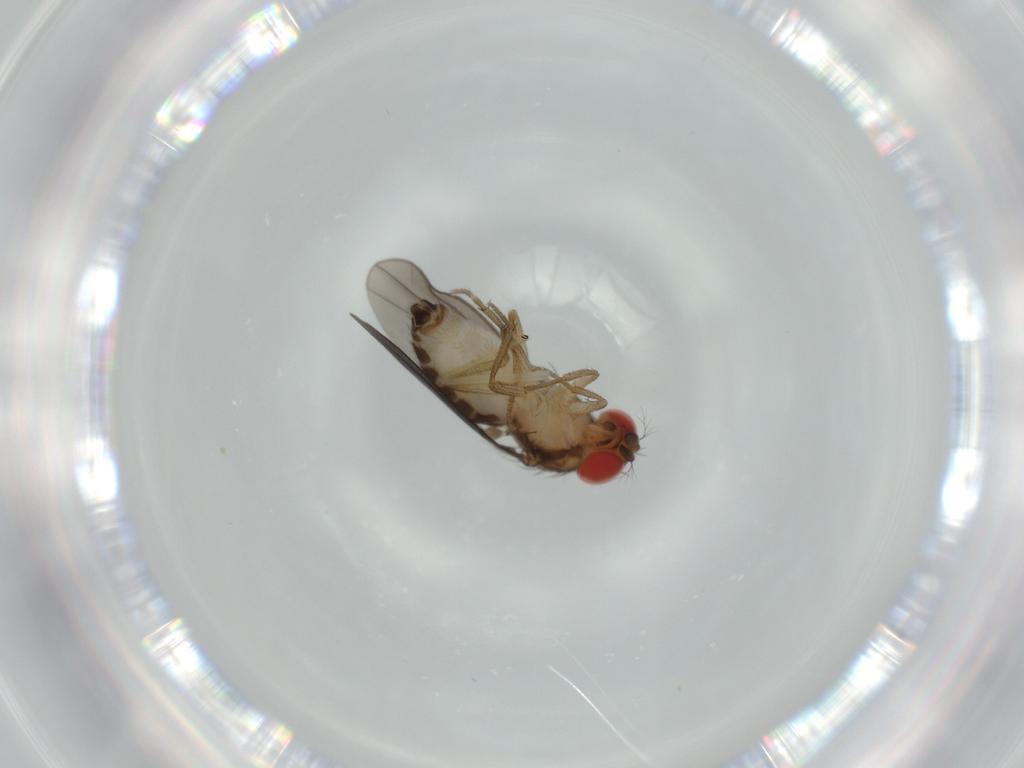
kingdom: Animalia
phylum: Arthropoda
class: Insecta
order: Diptera
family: Drosophilidae
